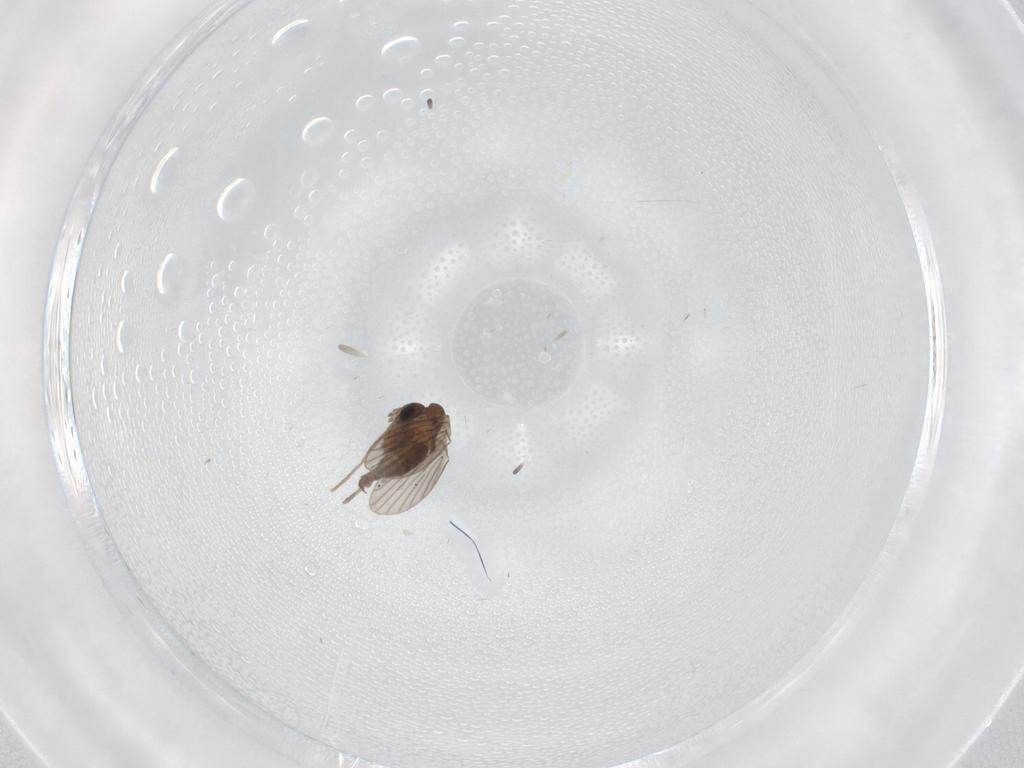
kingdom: Animalia
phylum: Arthropoda
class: Insecta
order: Diptera
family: Psychodidae
